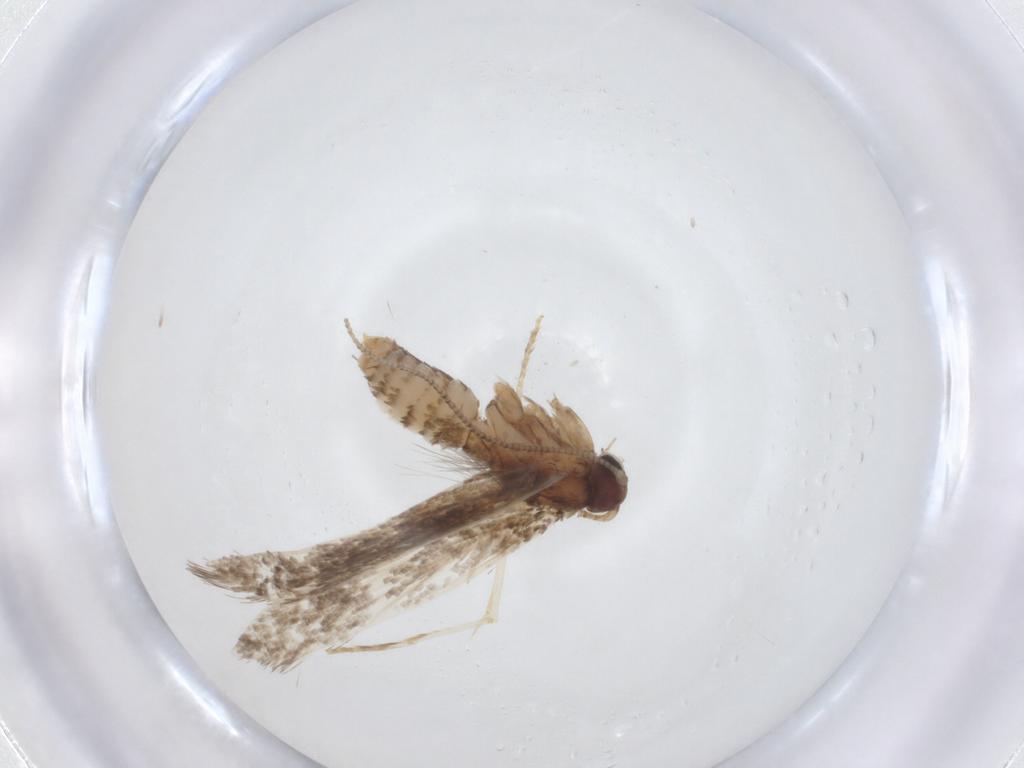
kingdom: Animalia
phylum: Arthropoda
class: Insecta
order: Lepidoptera
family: Tineidae
